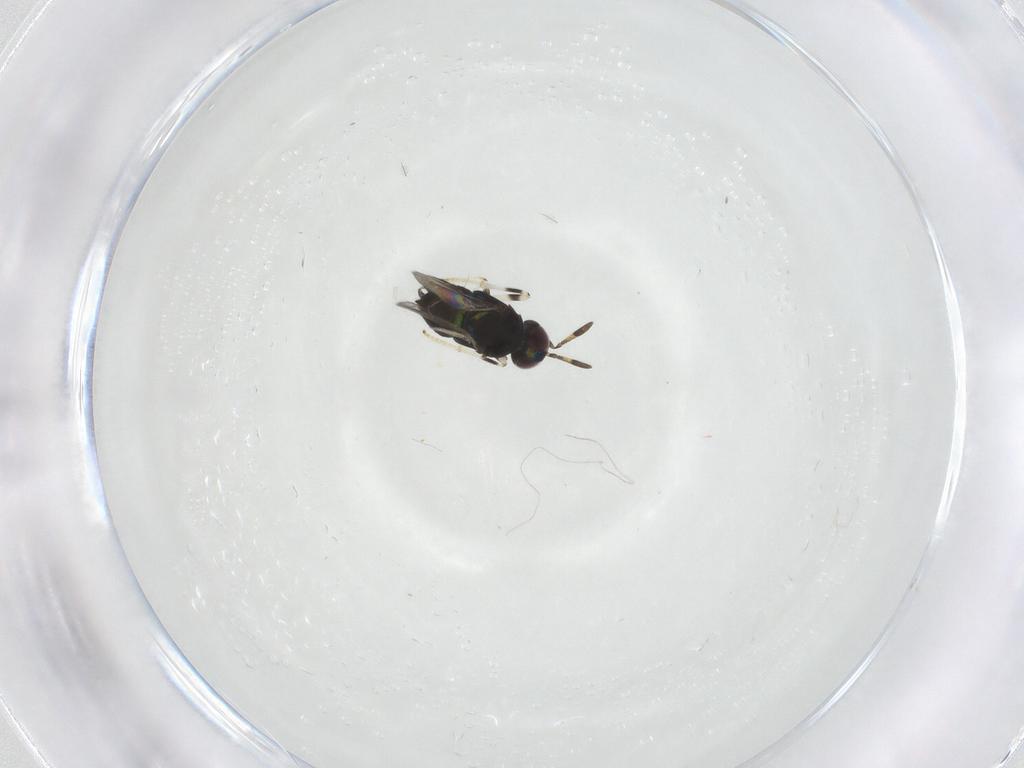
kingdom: Animalia
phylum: Arthropoda
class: Insecta
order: Hymenoptera
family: Encyrtidae
